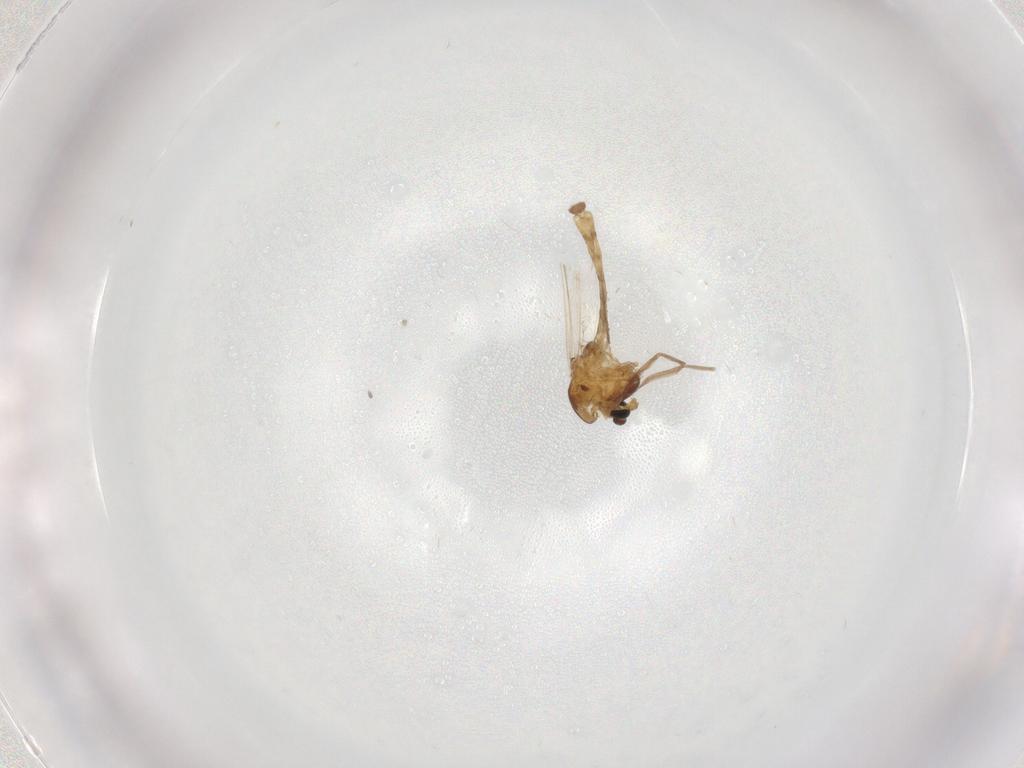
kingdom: Animalia
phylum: Arthropoda
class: Insecta
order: Diptera
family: Chironomidae
